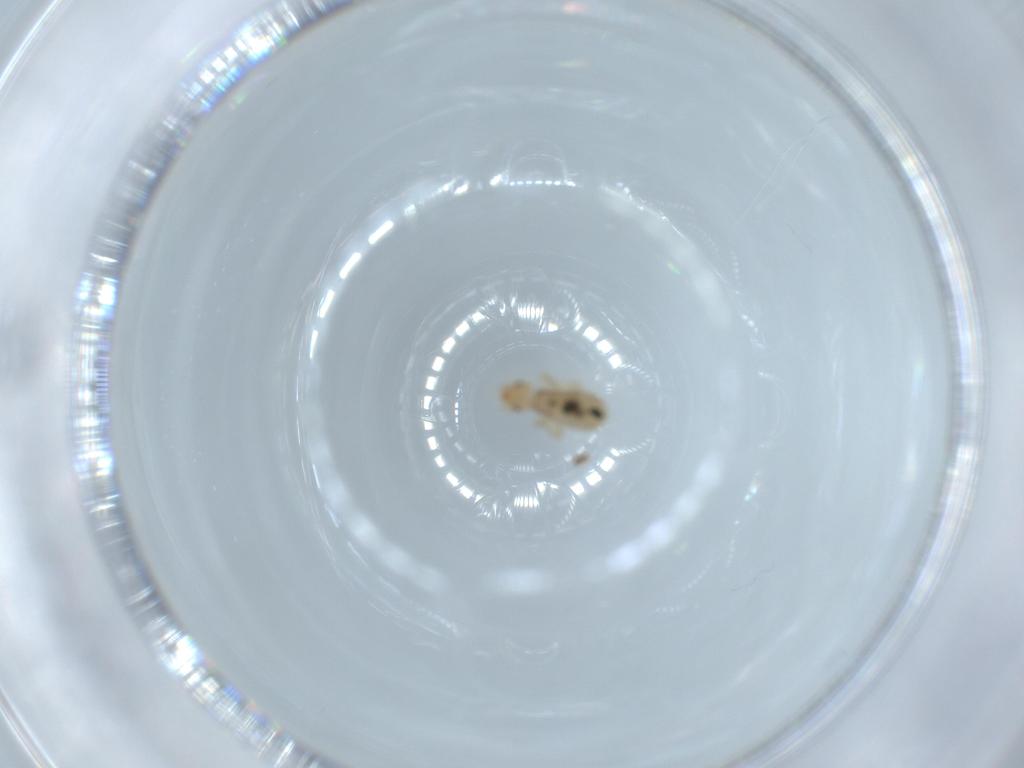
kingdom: Animalia
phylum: Arthropoda
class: Insecta
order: Psocodea
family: Liposcelididae
